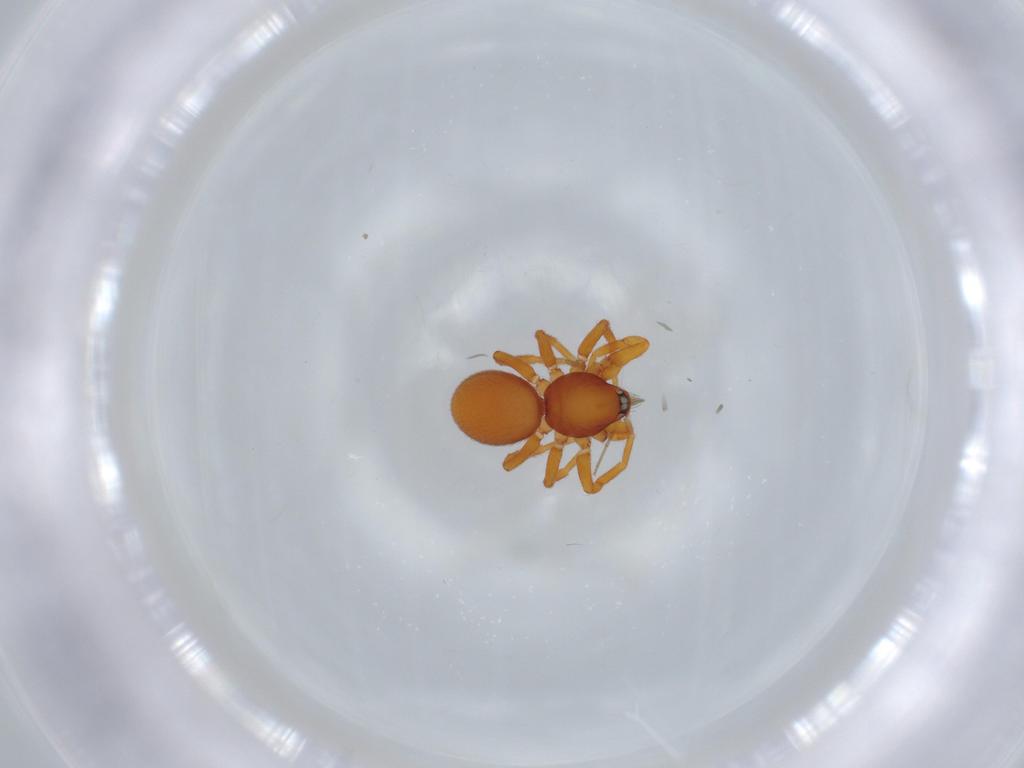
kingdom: Animalia
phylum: Arthropoda
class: Arachnida
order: Araneae
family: Oonopidae
